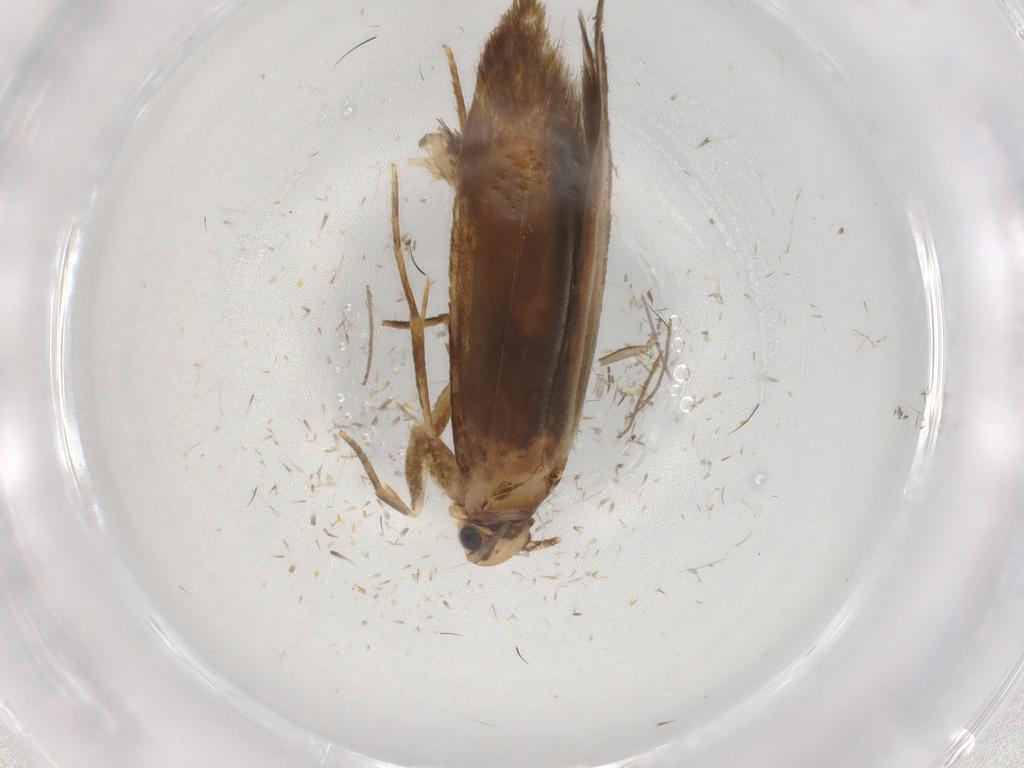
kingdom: Animalia
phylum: Arthropoda
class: Insecta
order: Lepidoptera
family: Tineidae
